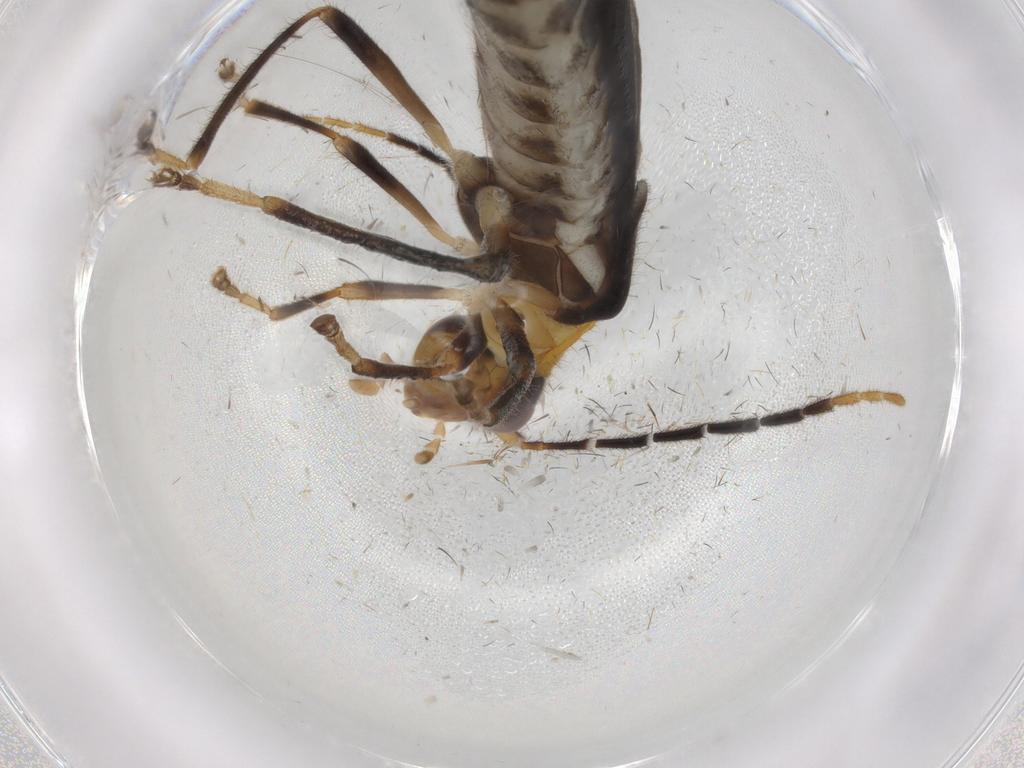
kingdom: Animalia
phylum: Arthropoda
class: Insecta
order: Coleoptera
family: Cantharidae
